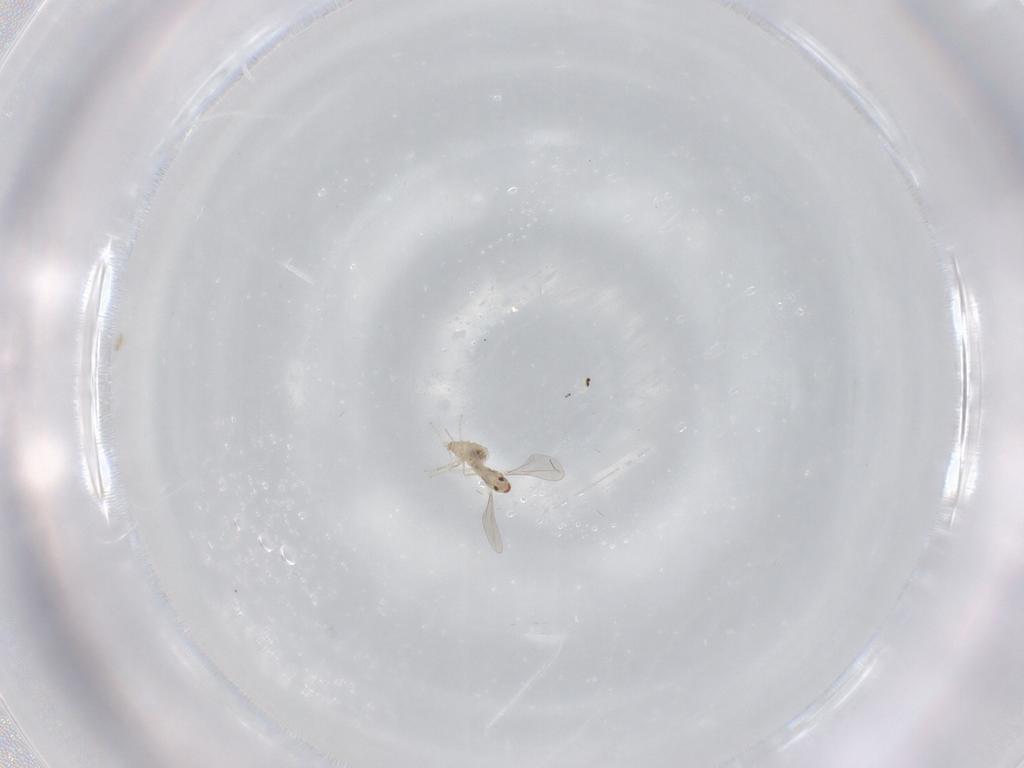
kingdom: Animalia
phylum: Arthropoda
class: Insecta
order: Diptera
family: Cecidomyiidae
